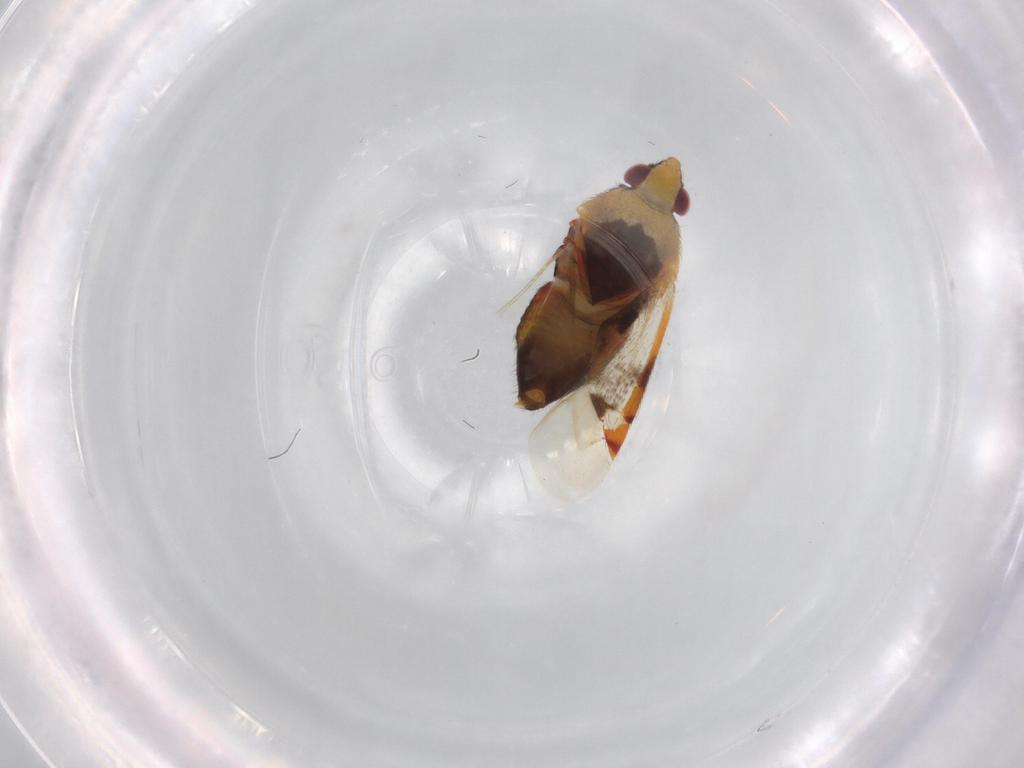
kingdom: Animalia
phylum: Arthropoda
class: Insecta
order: Hemiptera
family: Miridae
